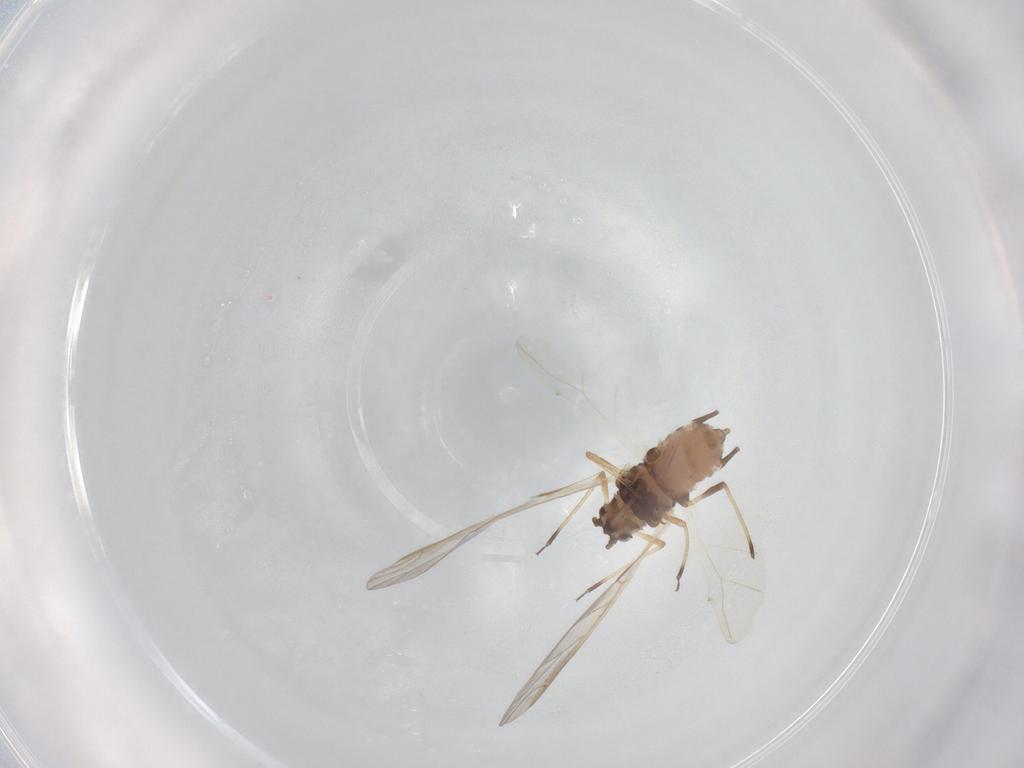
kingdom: Animalia
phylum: Arthropoda
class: Insecta
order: Hemiptera
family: Aphididae
